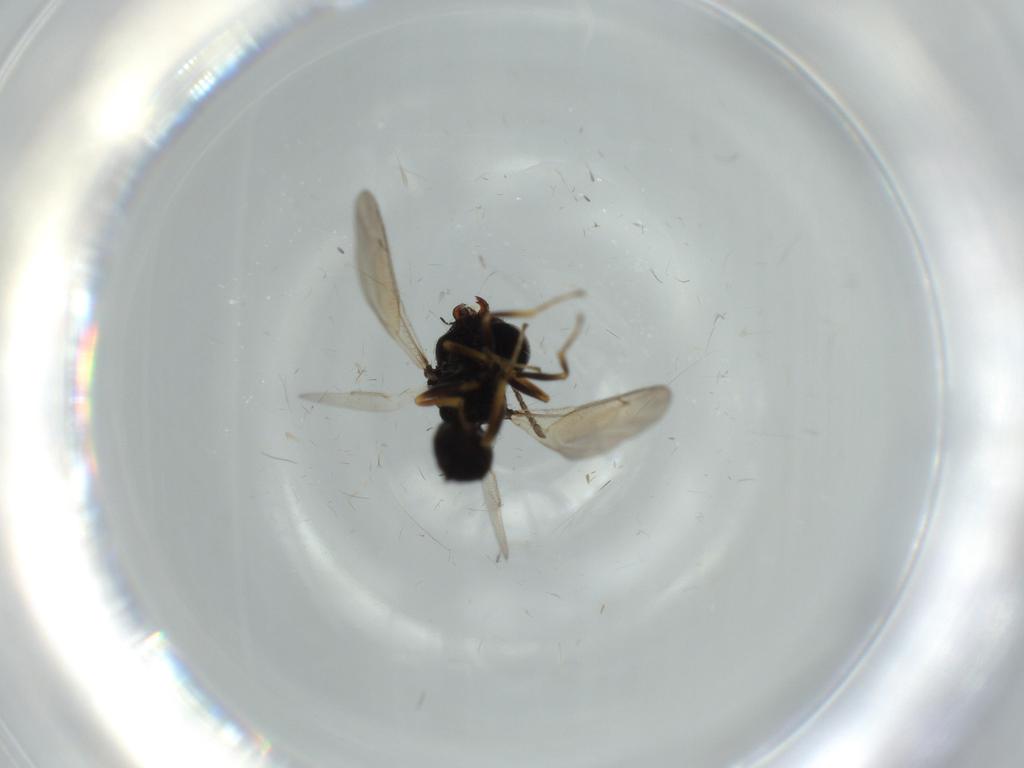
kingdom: Animalia
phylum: Arthropoda
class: Insecta
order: Hymenoptera
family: Pteromalidae
